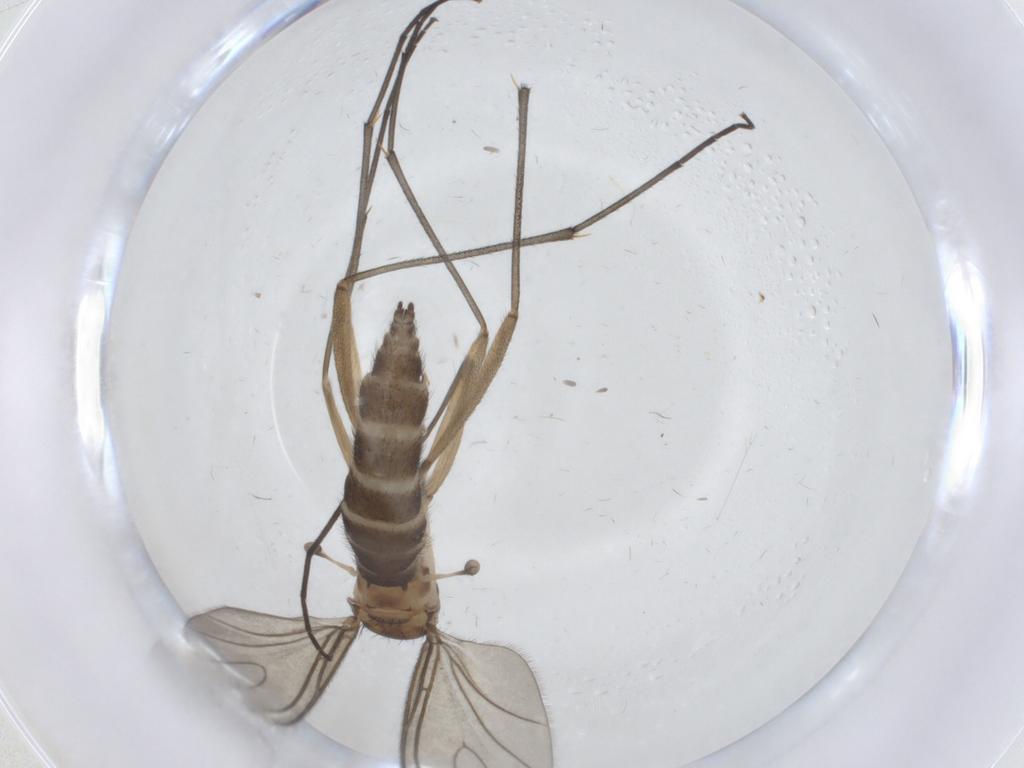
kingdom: Animalia
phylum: Arthropoda
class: Insecta
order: Diptera
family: Sciaridae
